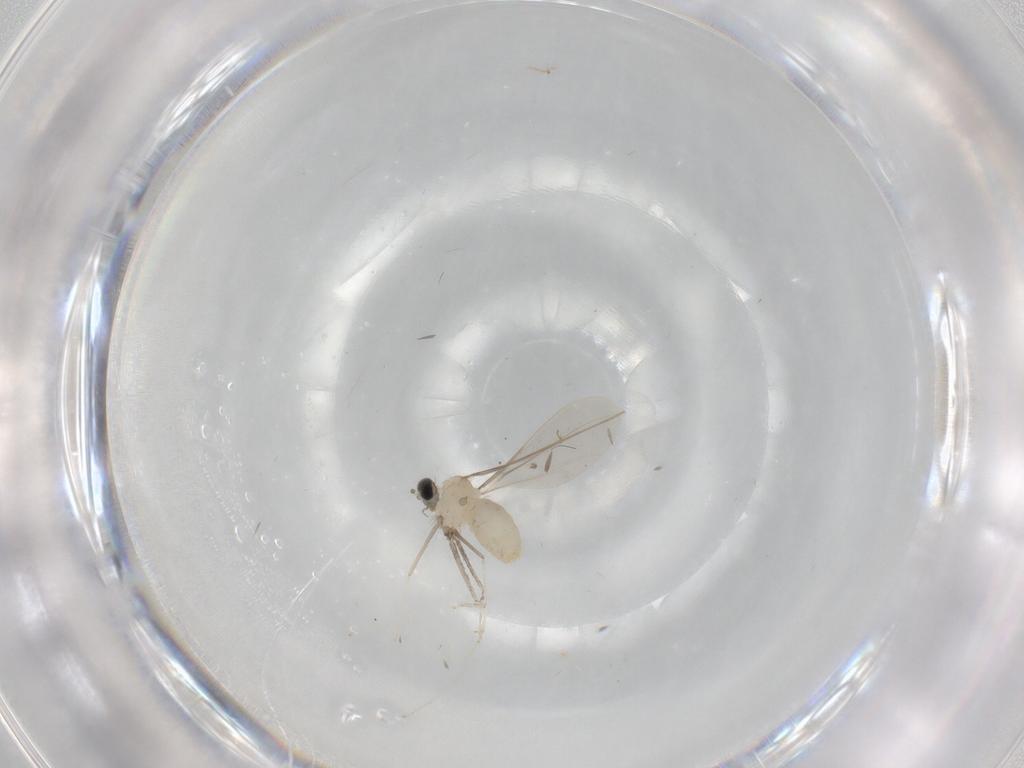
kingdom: Animalia
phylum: Arthropoda
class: Insecta
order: Diptera
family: Cecidomyiidae
